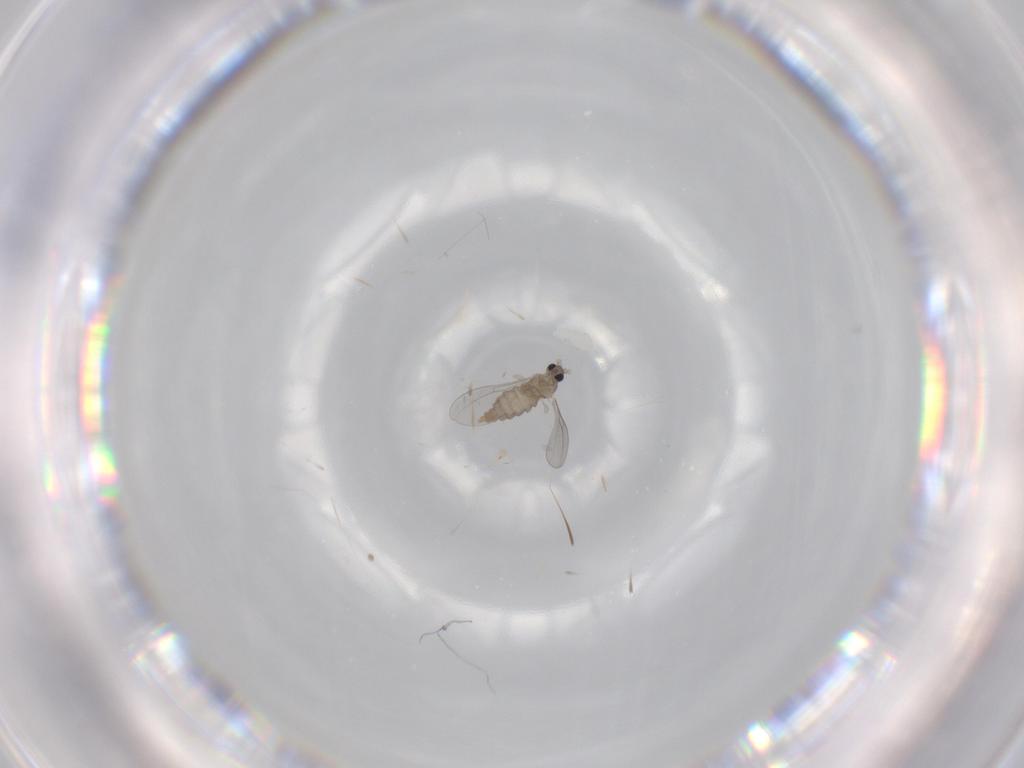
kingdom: Animalia
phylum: Arthropoda
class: Insecta
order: Diptera
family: Cecidomyiidae
